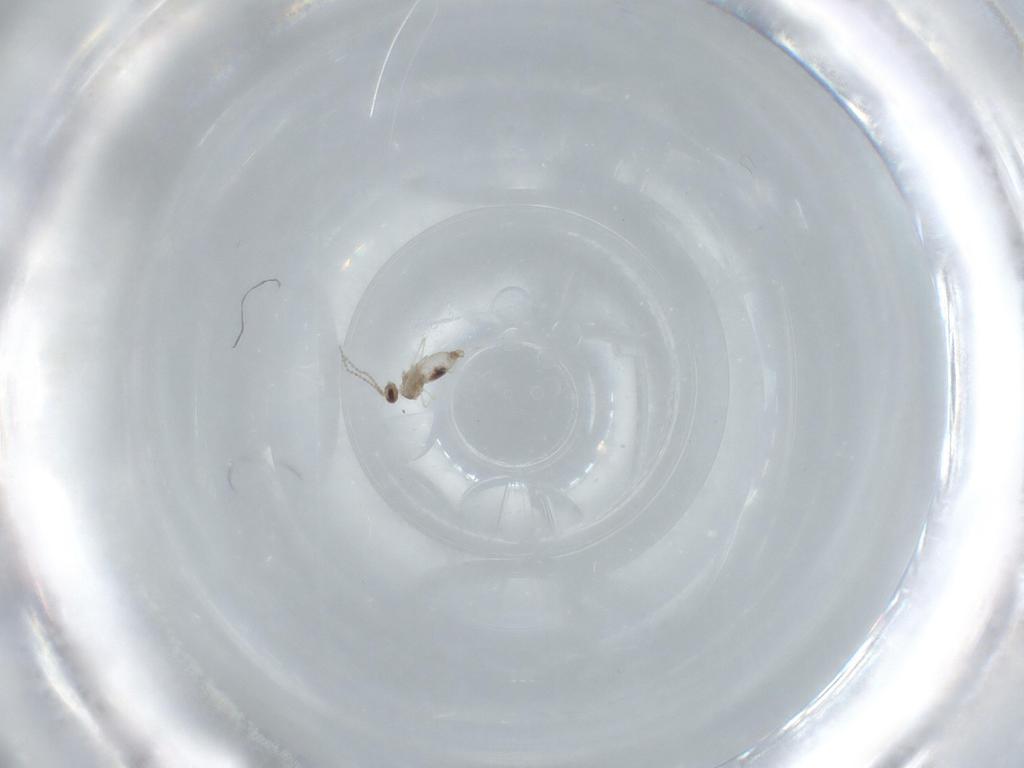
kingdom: Animalia
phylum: Arthropoda
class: Insecta
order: Diptera
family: Cecidomyiidae
